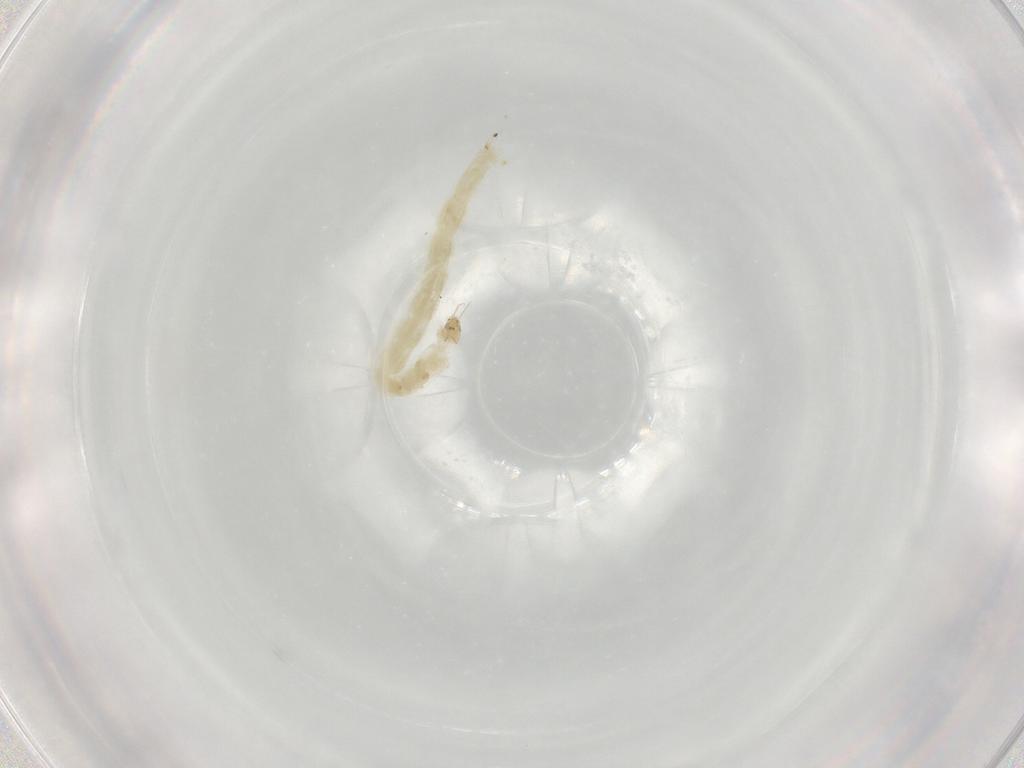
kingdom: Animalia
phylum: Arthropoda
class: Insecta
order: Diptera
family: Chironomidae
